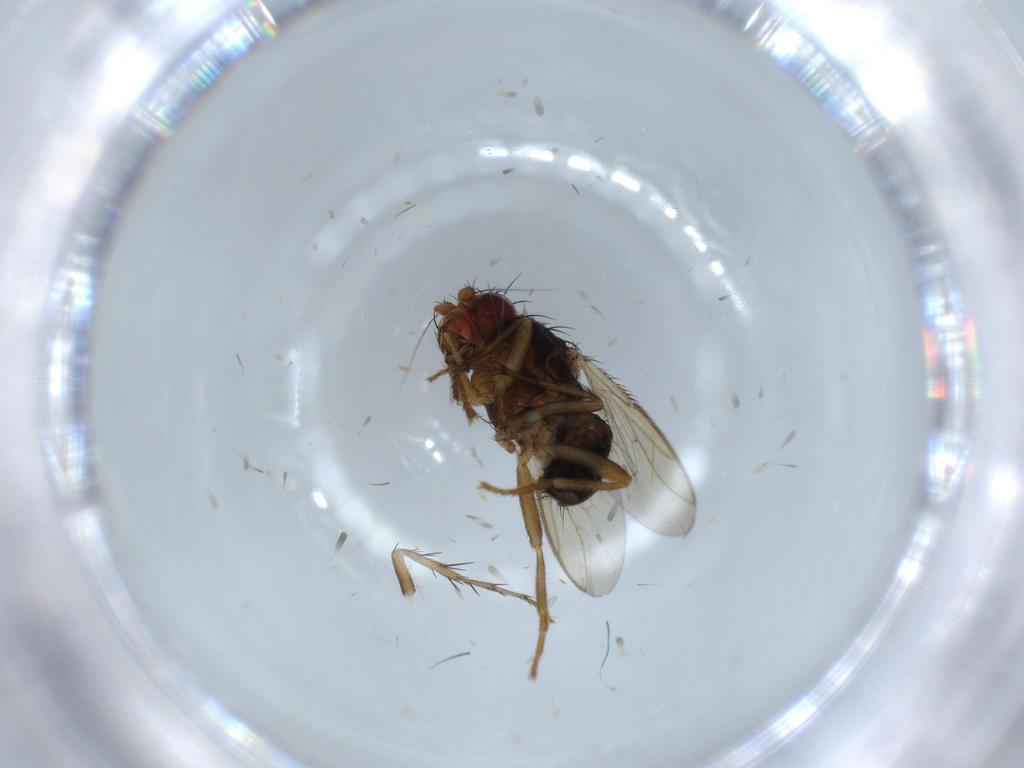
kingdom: Animalia
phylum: Arthropoda
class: Insecta
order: Diptera
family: Sphaeroceridae
